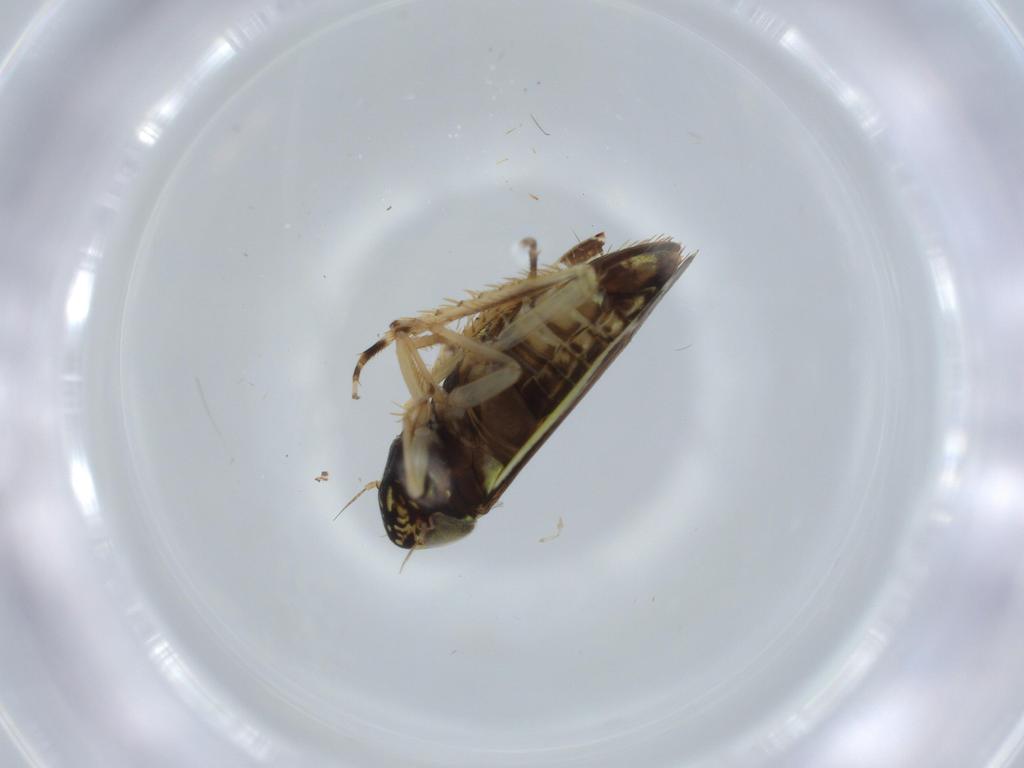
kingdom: Animalia
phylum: Arthropoda
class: Insecta
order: Hemiptera
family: Cicadellidae
